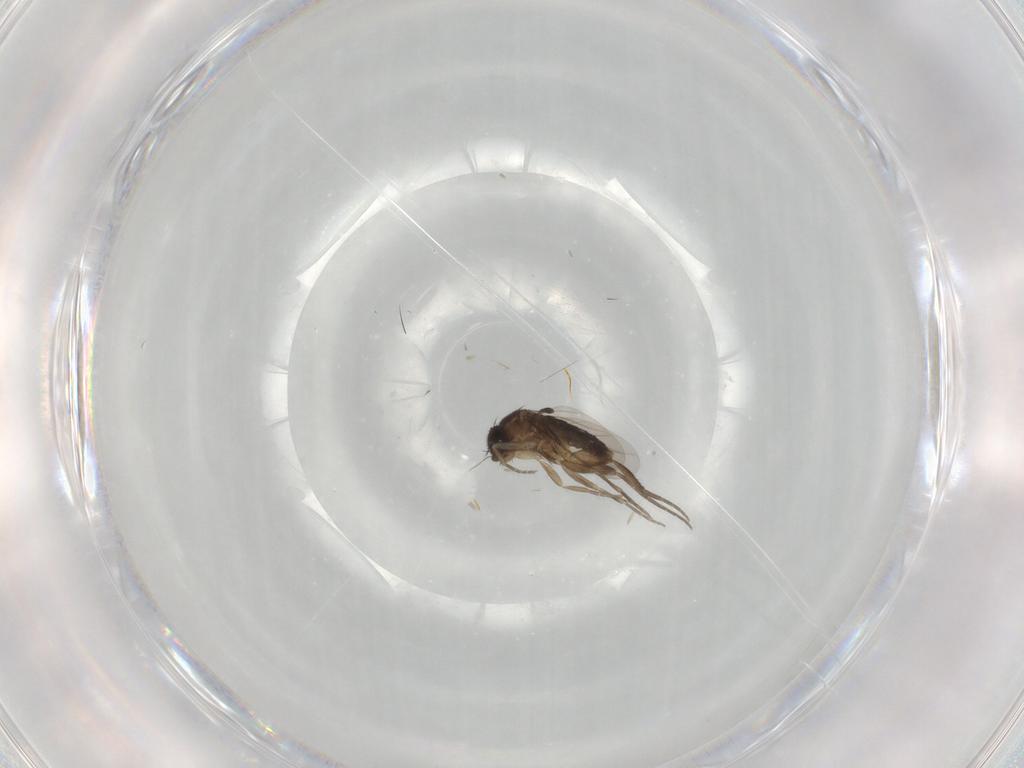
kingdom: Animalia
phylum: Arthropoda
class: Insecta
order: Diptera
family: Phoridae
